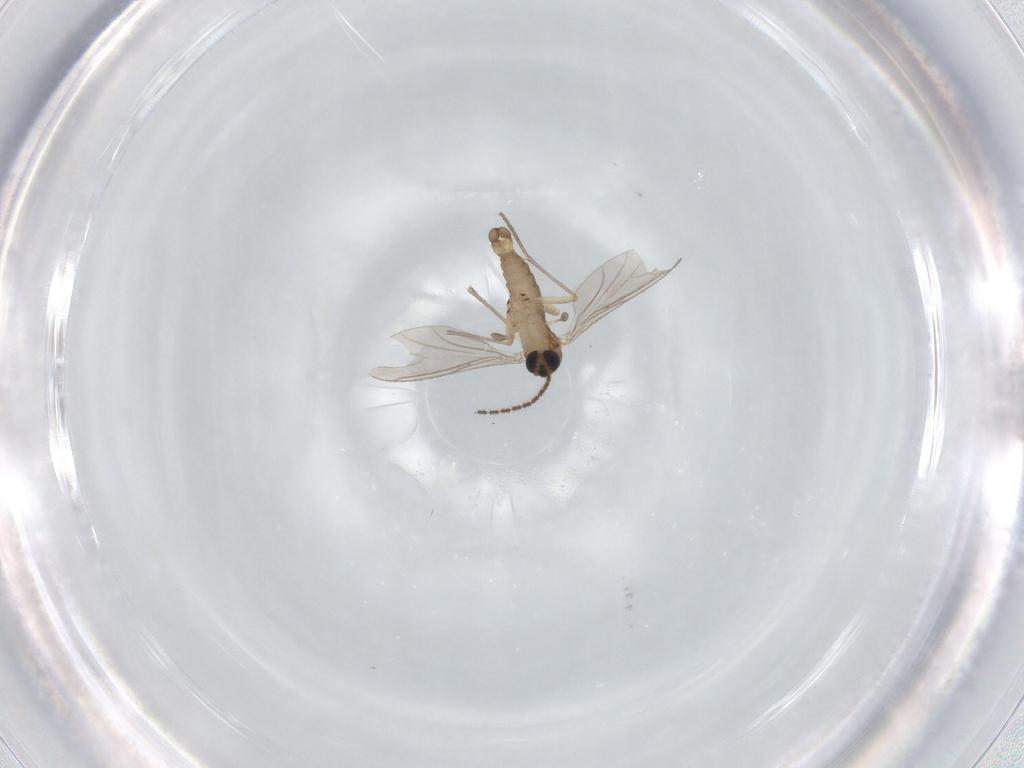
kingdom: Animalia
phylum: Arthropoda
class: Insecta
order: Diptera
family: Sciaridae
